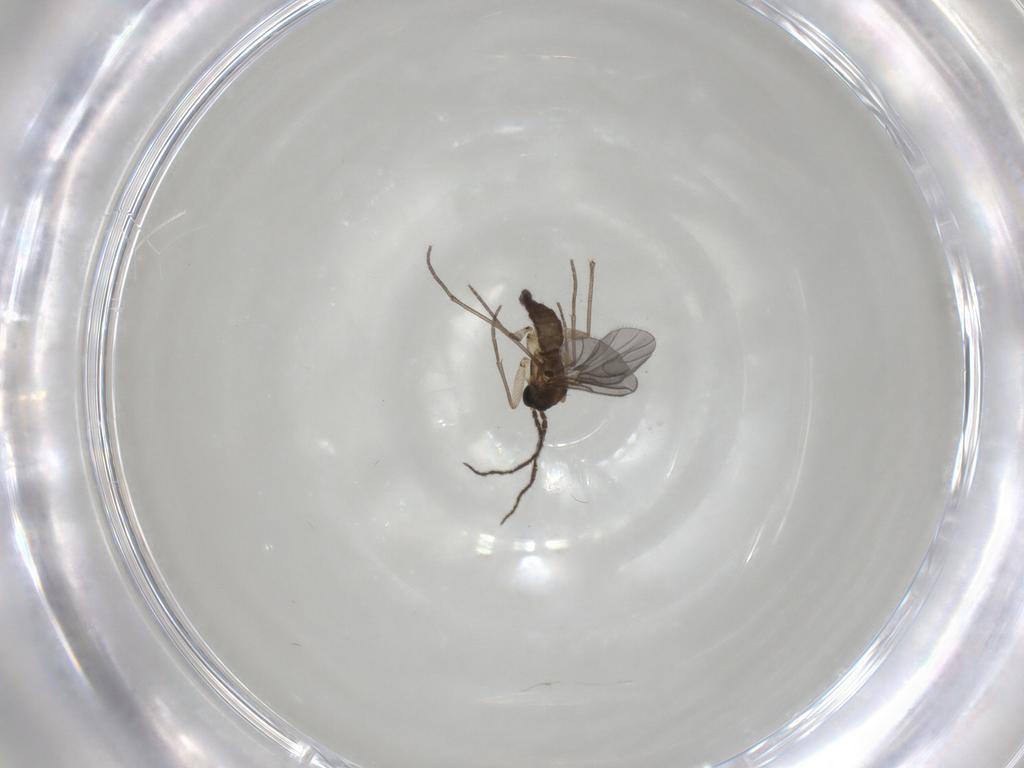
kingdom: Animalia
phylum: Arthropoda
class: Insecta
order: Diptera
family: Sciaridae
